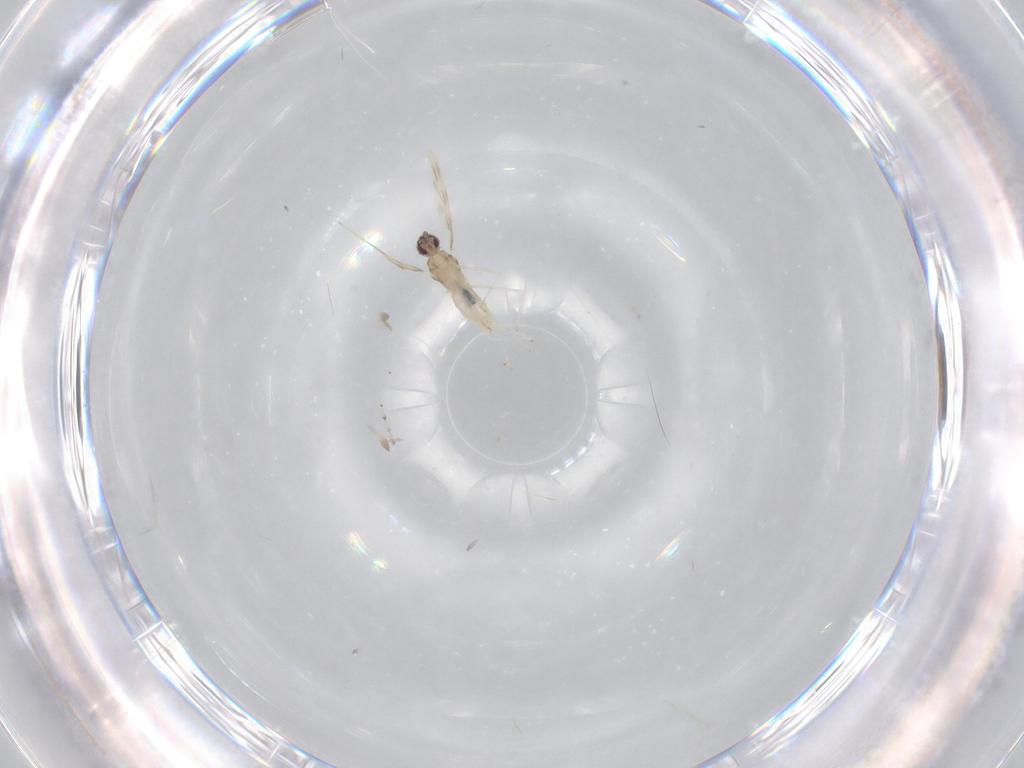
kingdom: Animalia
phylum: Arthropoda
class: Insecta
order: Diptera
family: Cecidomyiidae
